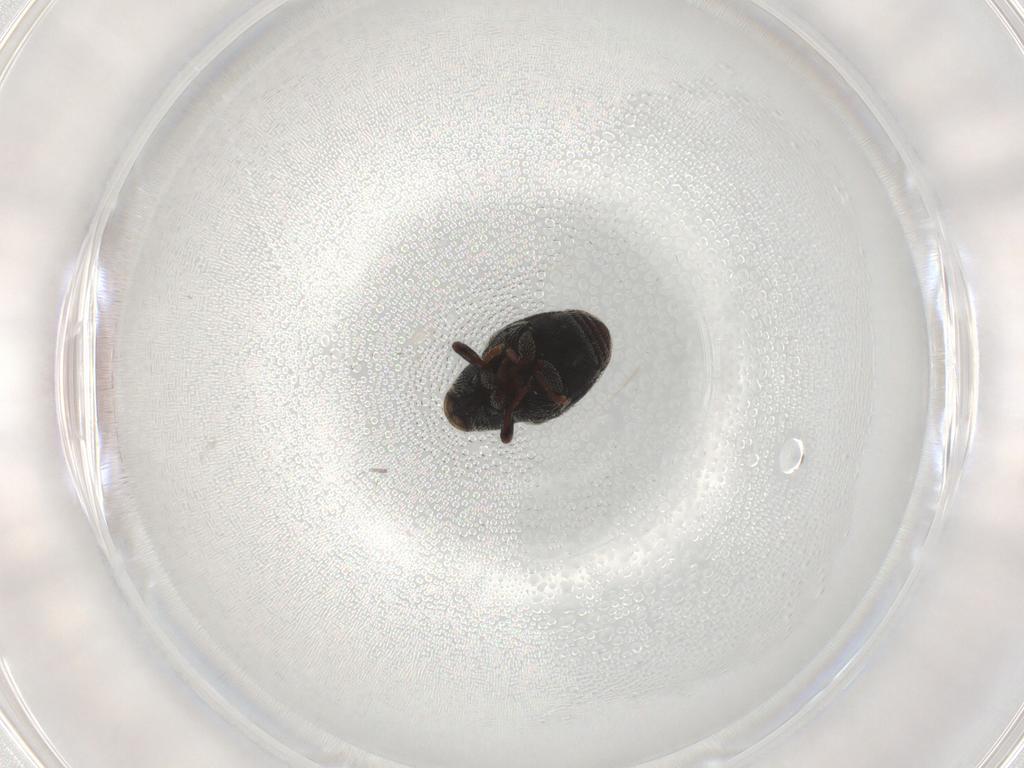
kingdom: Animalia
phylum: Arthropoda
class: Insecta
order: Coleoptera
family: Curculionidae
